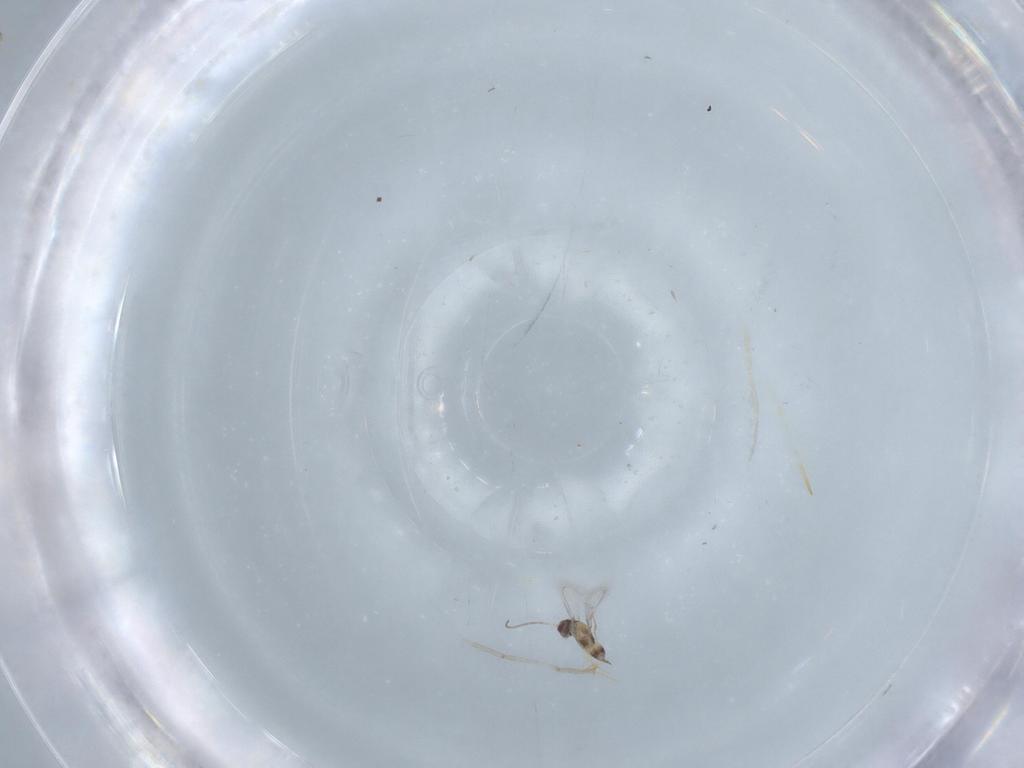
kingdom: Animalia
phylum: Arthropoda
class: Insecta
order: Hymenoptera
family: Mymaridae
